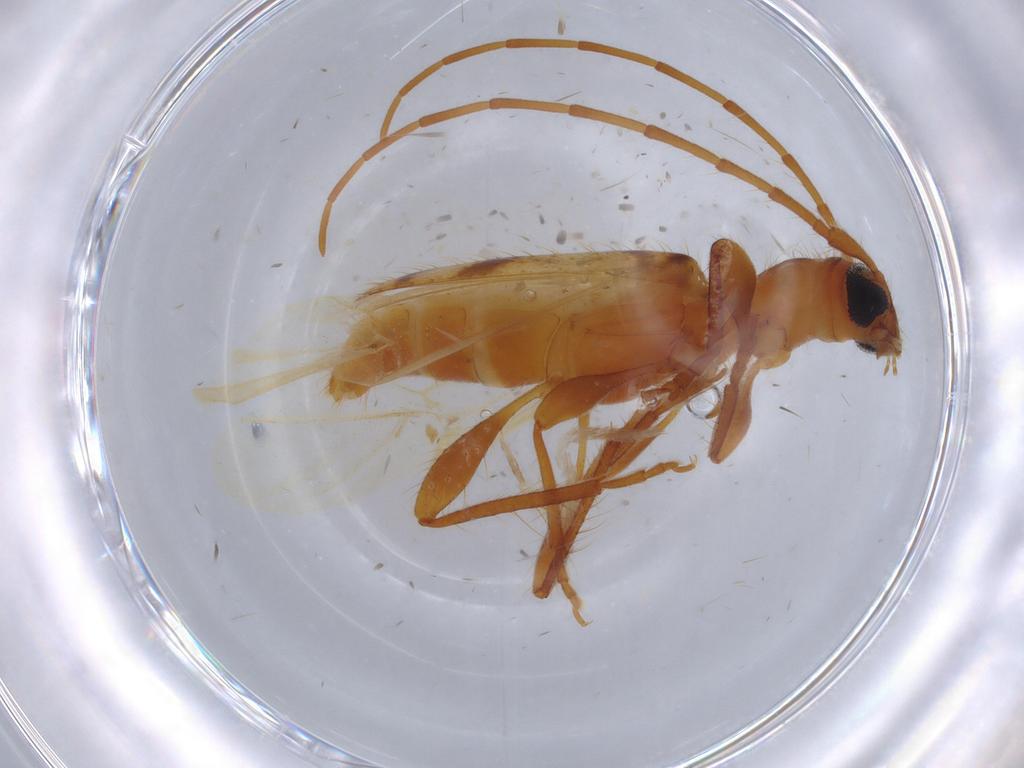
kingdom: Animalia
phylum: Arthropoda
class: Insecta
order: Coleoptera
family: Cerambycidae
